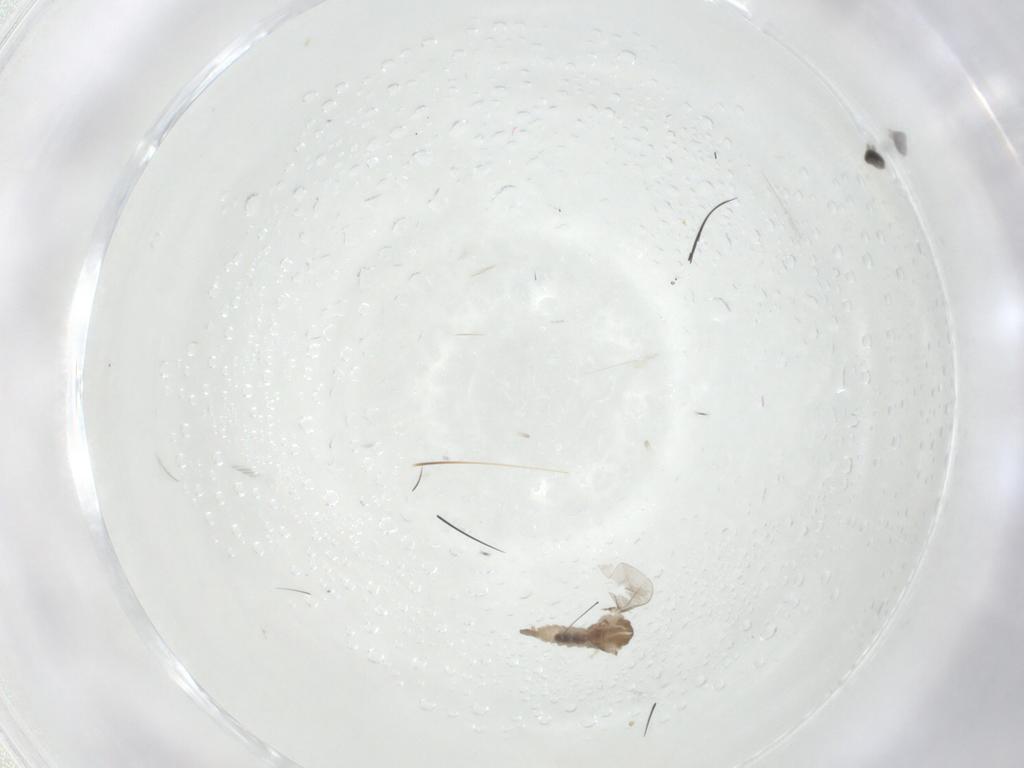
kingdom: Animalia
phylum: Arthropoda
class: Insecta
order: Diptera
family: Cecidomyiidae
